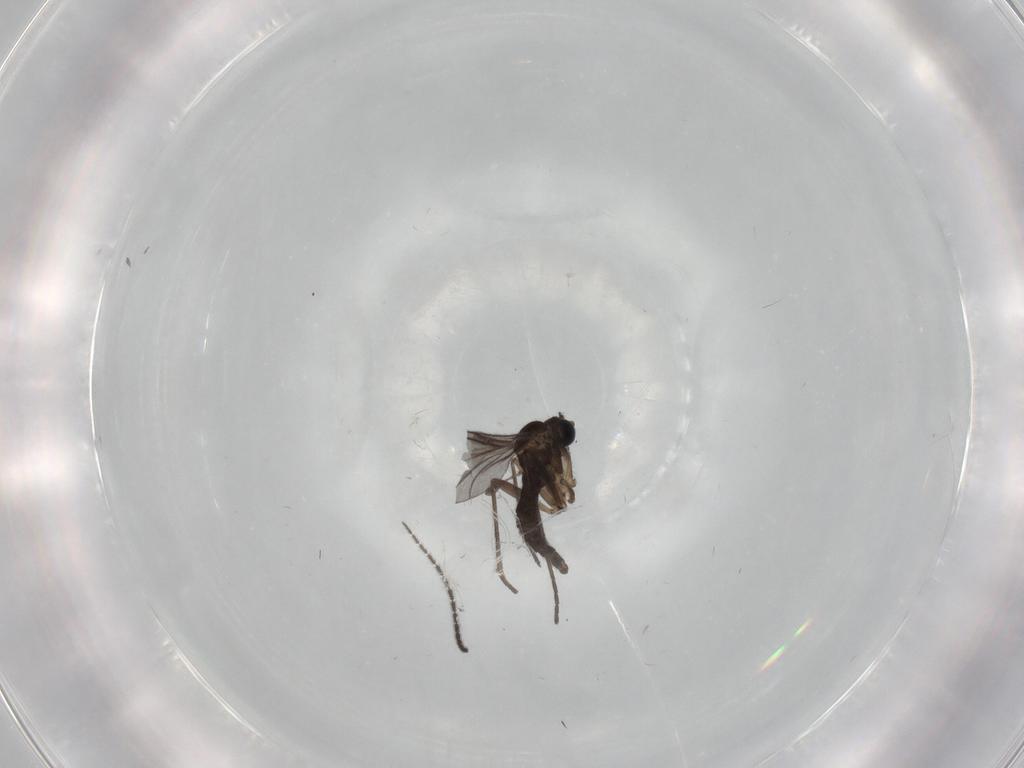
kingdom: Animalia
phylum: Arthropoda
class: Insecta
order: Diptera
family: Sciaridae
